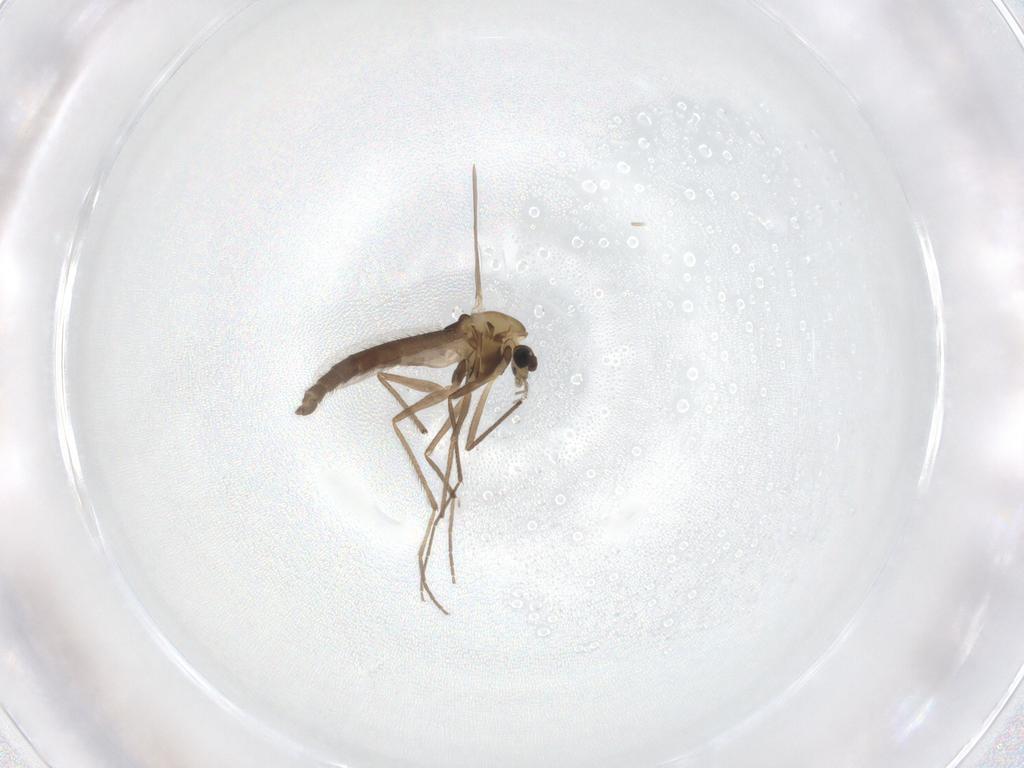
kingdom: Animalia
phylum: Arthropoda
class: Insecta
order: Diptera
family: Chironomidae
